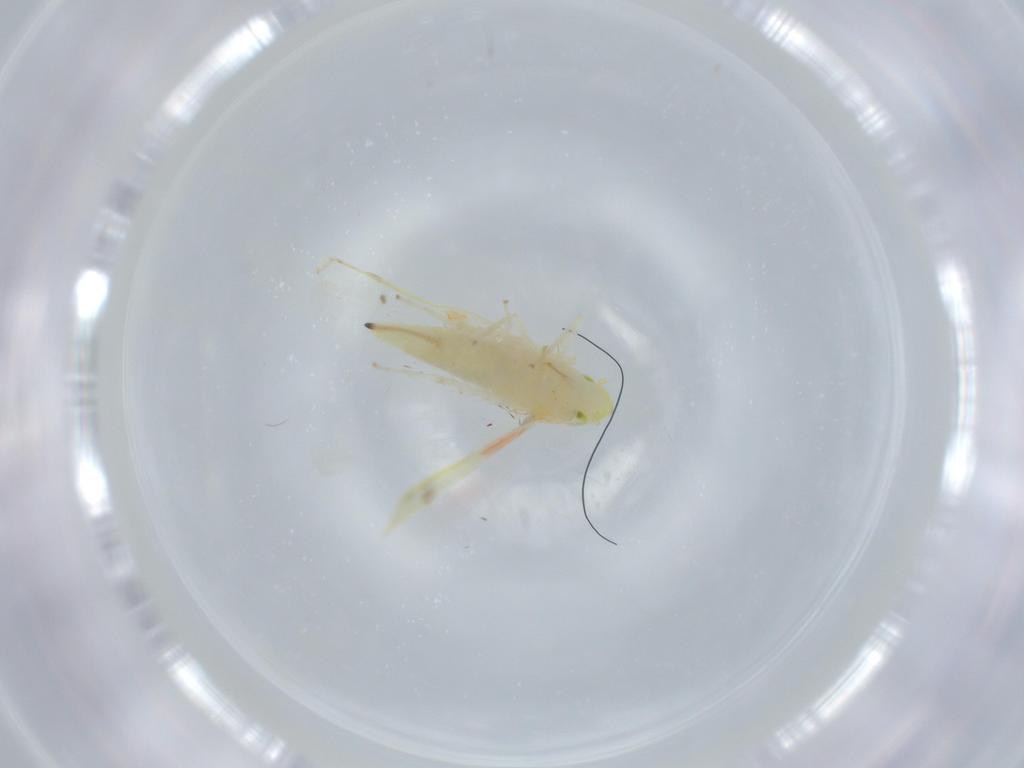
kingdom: Animalia
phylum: Arthropoda
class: Insecta
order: Hemiptera
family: Cicadellidae
